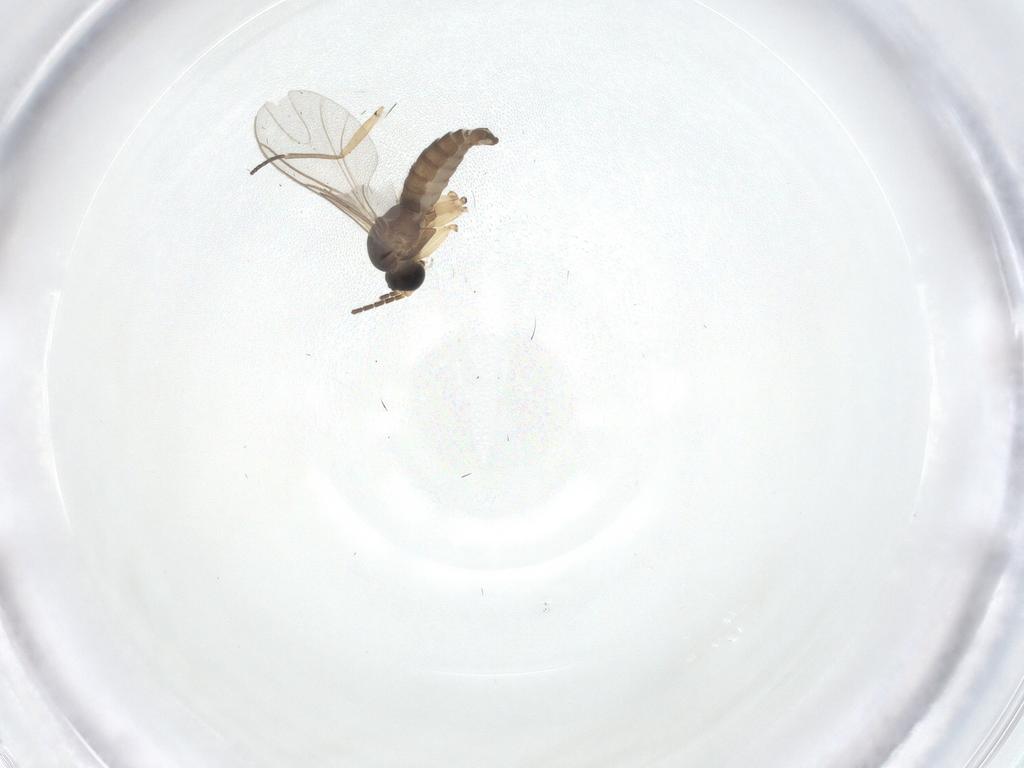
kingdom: Animalia
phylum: Arthropoda
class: Insecta
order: Diptera
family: Sciaridae
